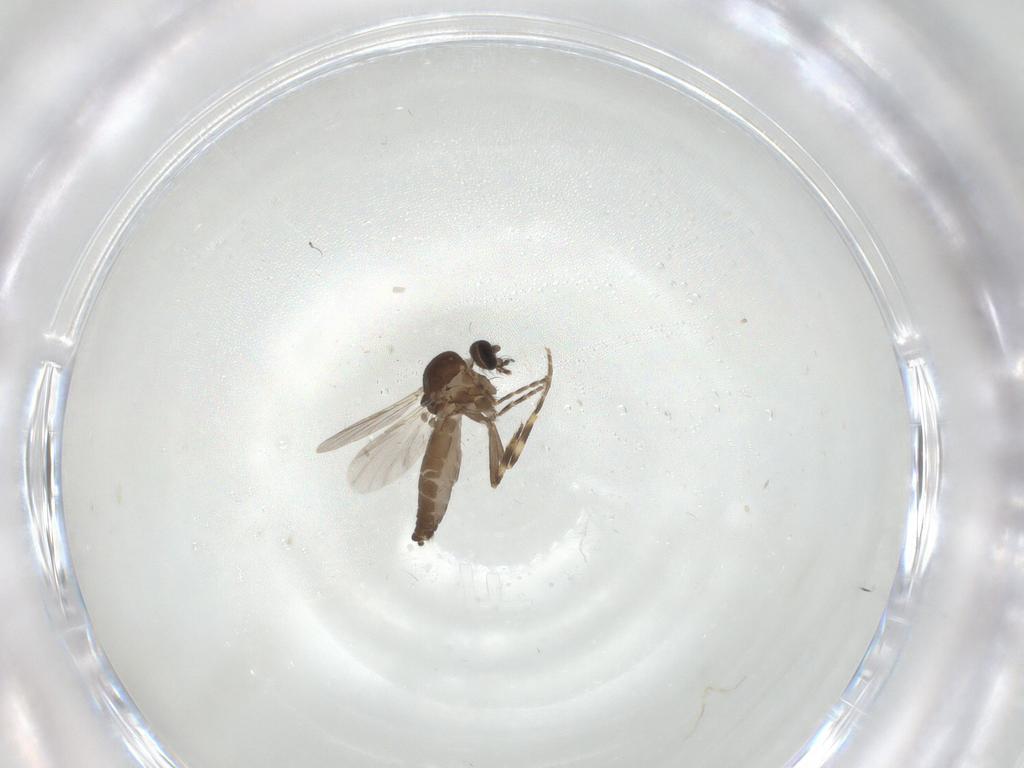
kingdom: Animalia
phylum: Arthropoda
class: Insecta
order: Diptera
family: Ceratopogonidae
